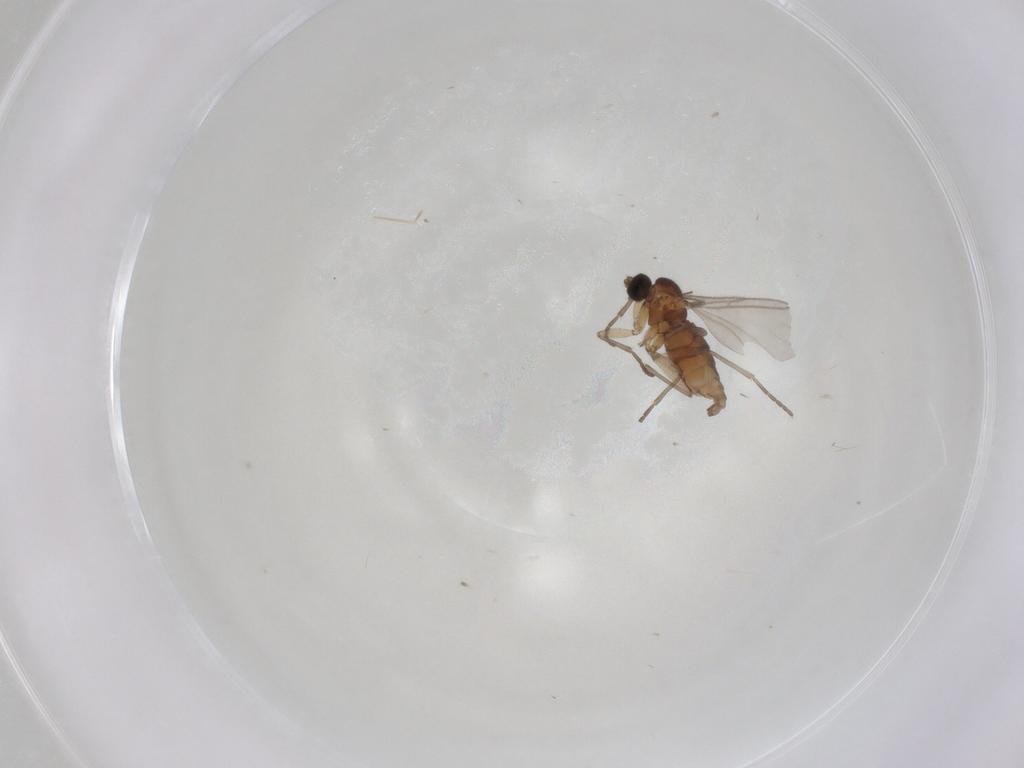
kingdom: Animalia
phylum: Arthropoda
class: Insecta
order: Diptera
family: Sciaridae
